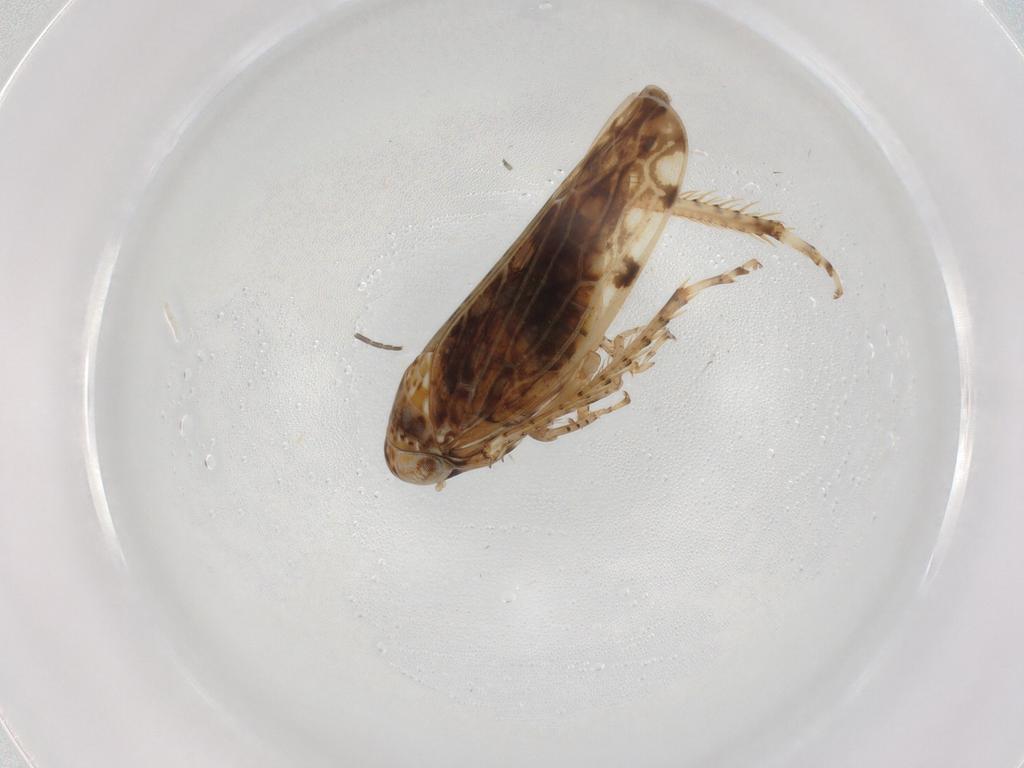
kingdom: Animalia
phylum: Arthropoda
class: Insecta
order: Hemiptera
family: Cicadellidae
